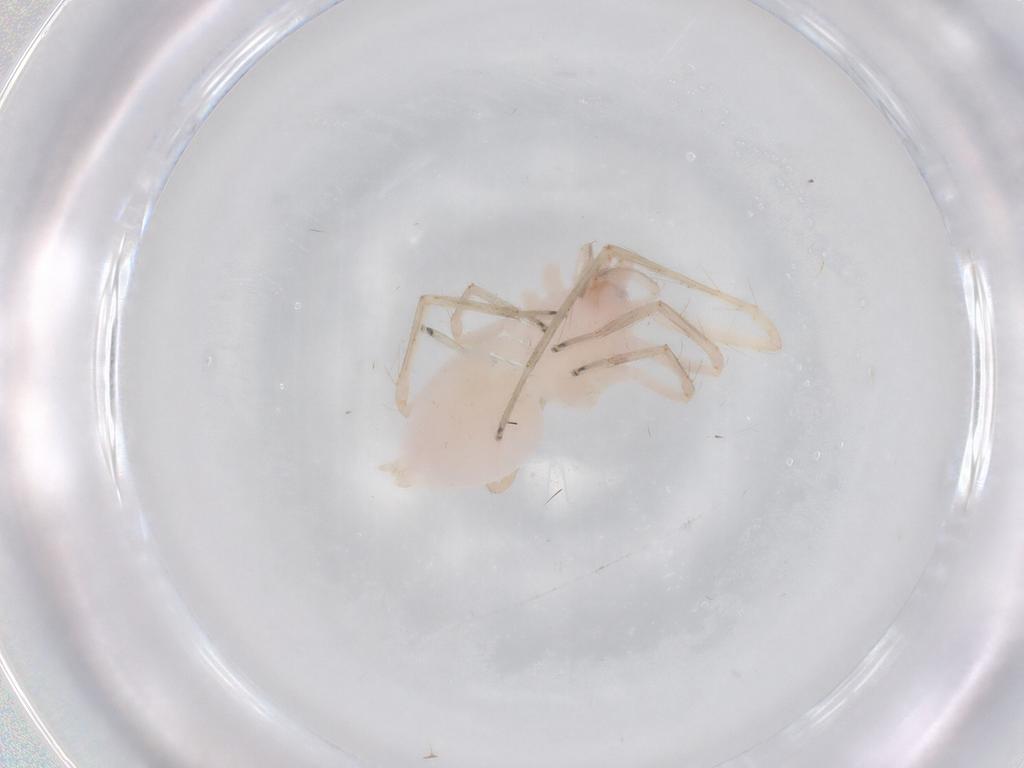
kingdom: Animalia
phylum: Arthropoda
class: Arachnida
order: Araneae
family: Anyphaenidae
